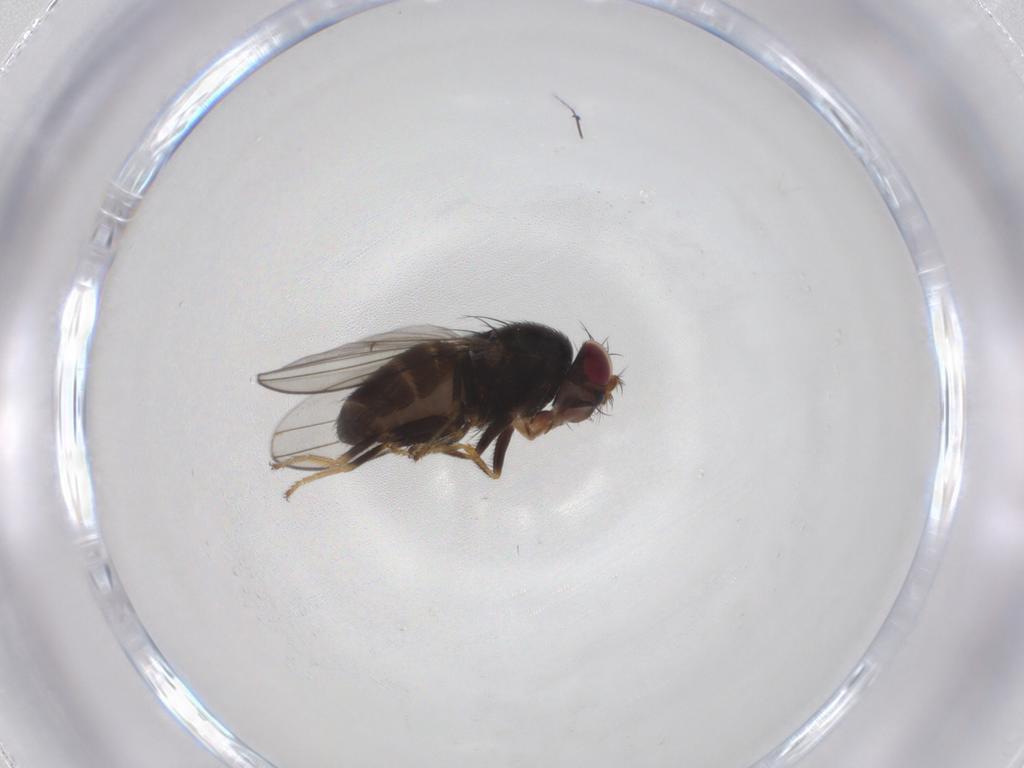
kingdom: Animalia
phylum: Arthropoda
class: Insecta
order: Diptera
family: Ephydridae
